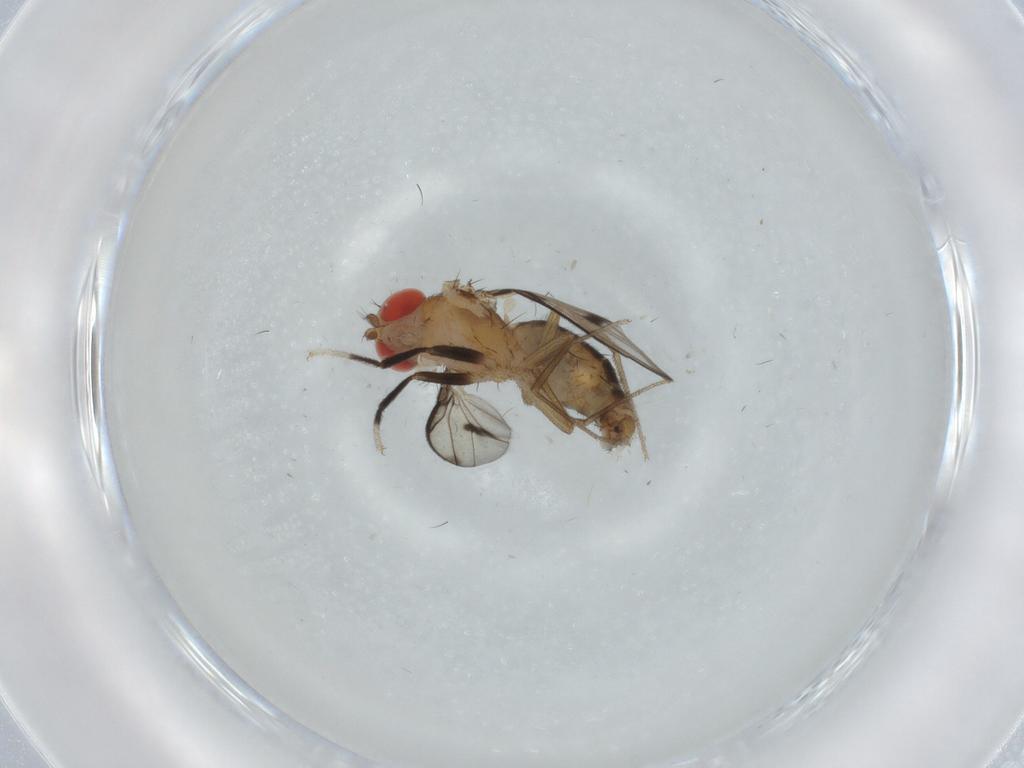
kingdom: Animalia
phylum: Arthropoda
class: Insecta
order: Diptera
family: Drosophilidae
